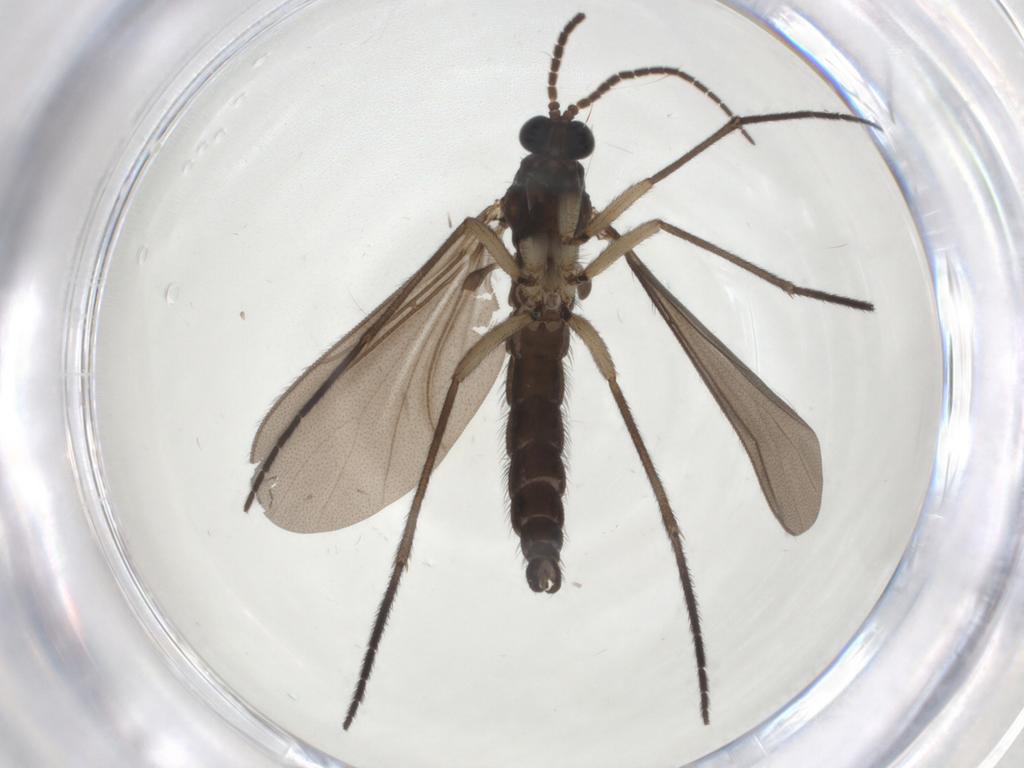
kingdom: Animalia
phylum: Arthropoda
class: Insecta
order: Diptera
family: Sciaridae
